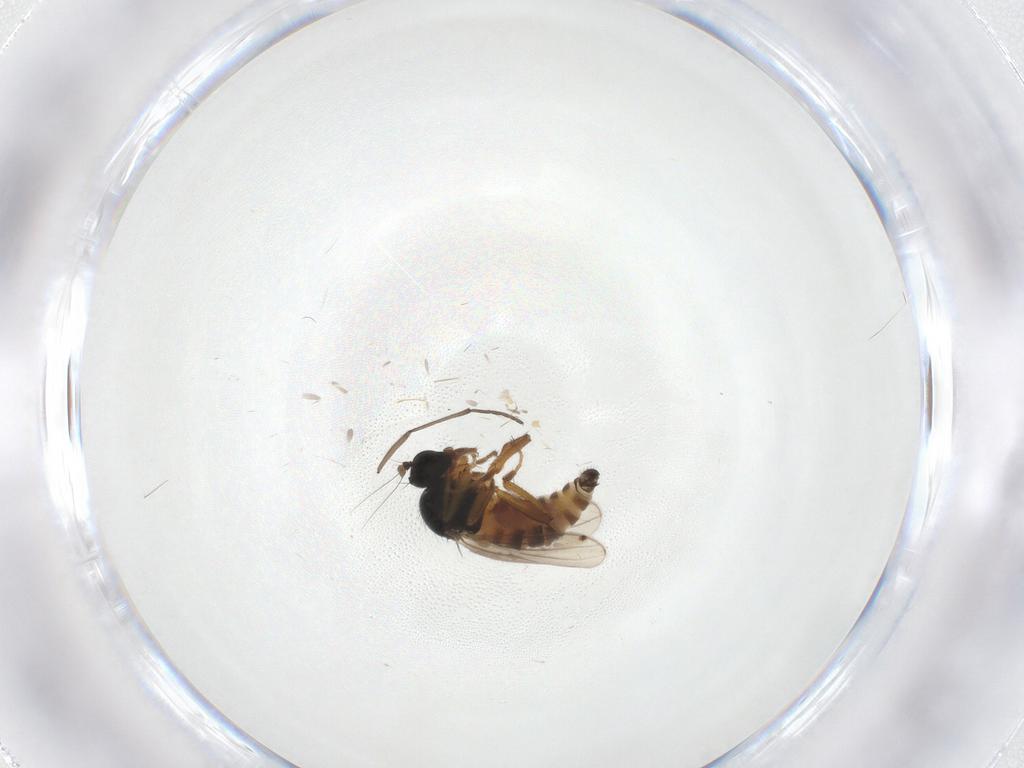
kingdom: Animalia
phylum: Arthropoda
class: Insecta
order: Diptera
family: Hybotidae
